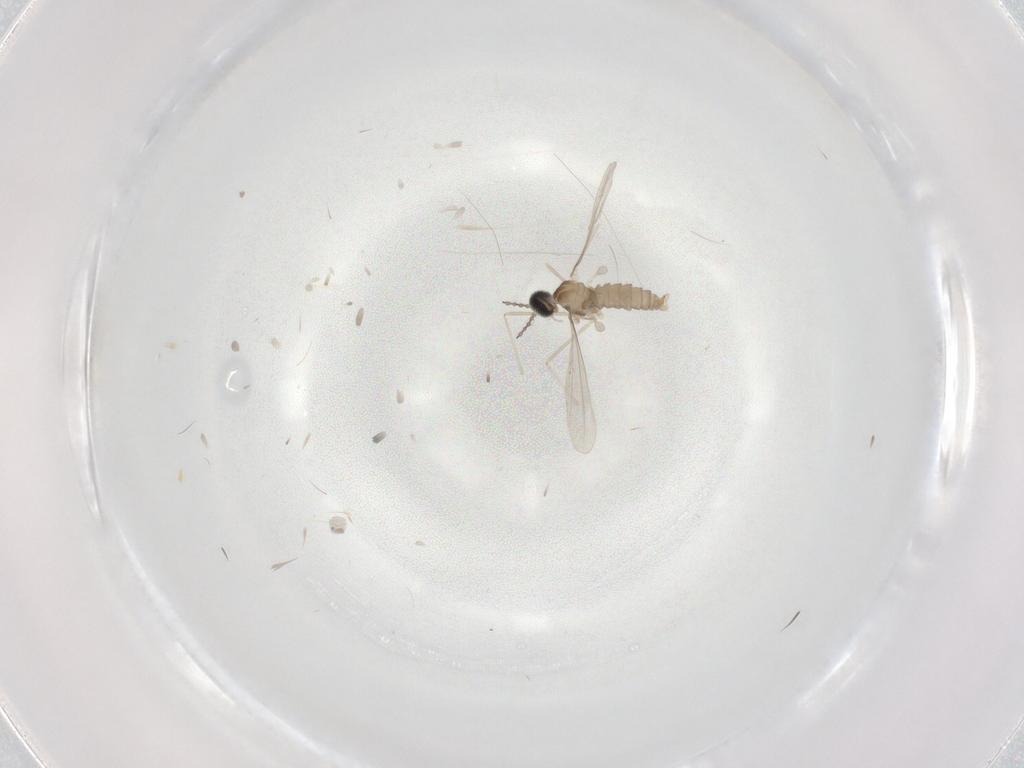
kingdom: Animalia
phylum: Arthropoda
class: Insecta
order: Diptera
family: Cecidomyiidae
